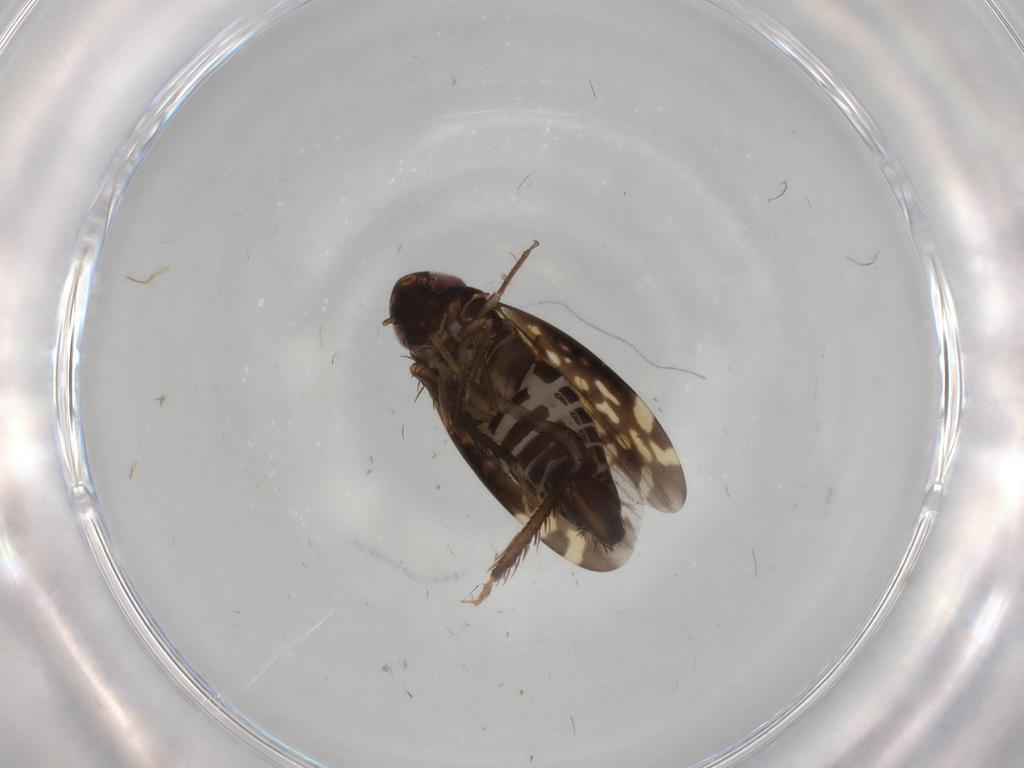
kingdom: Animalia
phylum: Arthropoda
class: Insecta
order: Hemiptera
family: Cicadellidae
